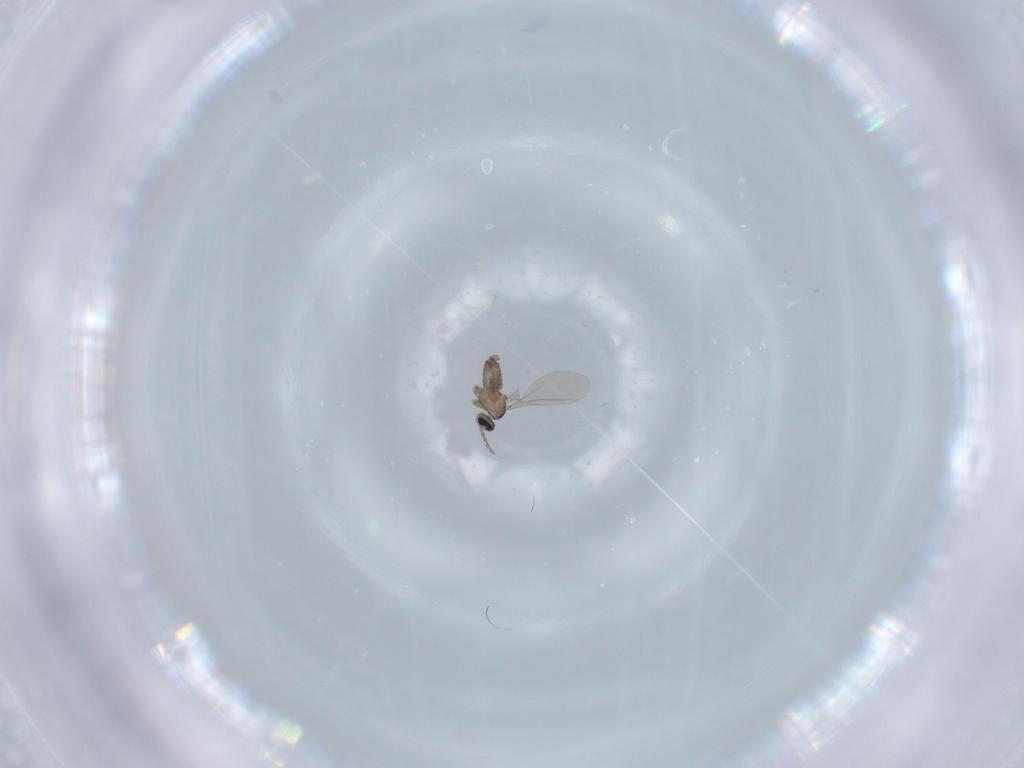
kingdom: Animalia
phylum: Arthropoda
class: Insecta
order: Diptera
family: Cecidomyiidae
